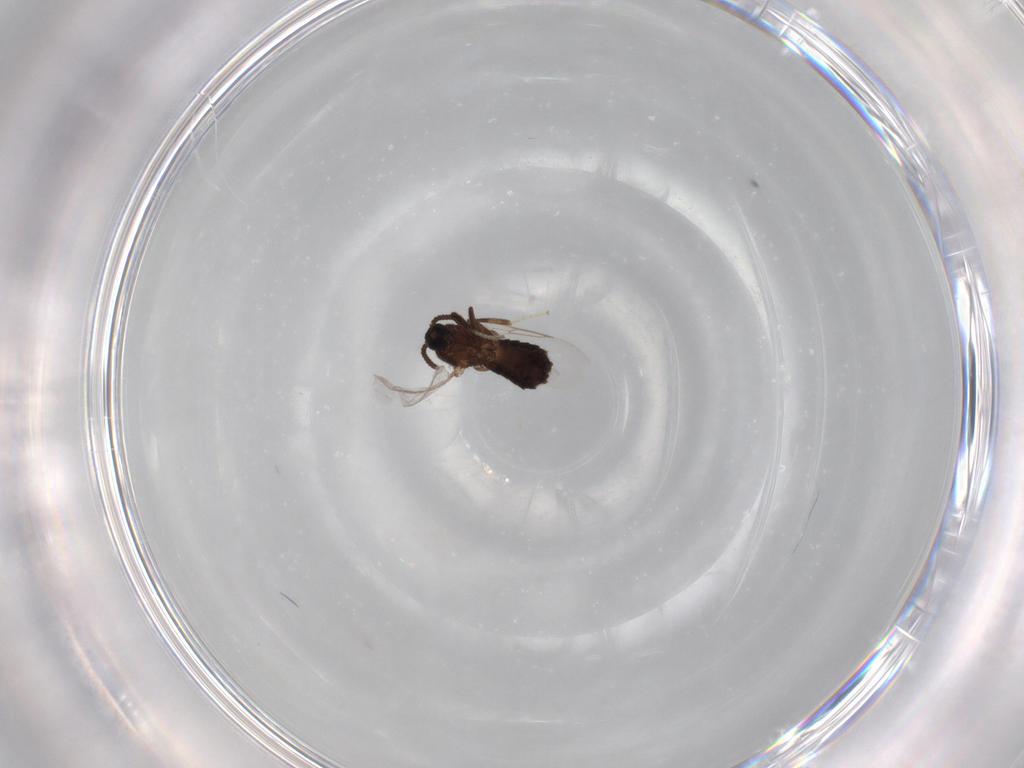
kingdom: Animalia
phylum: Arthropoda
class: Insecta
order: Diptera
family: Scatopsidae
